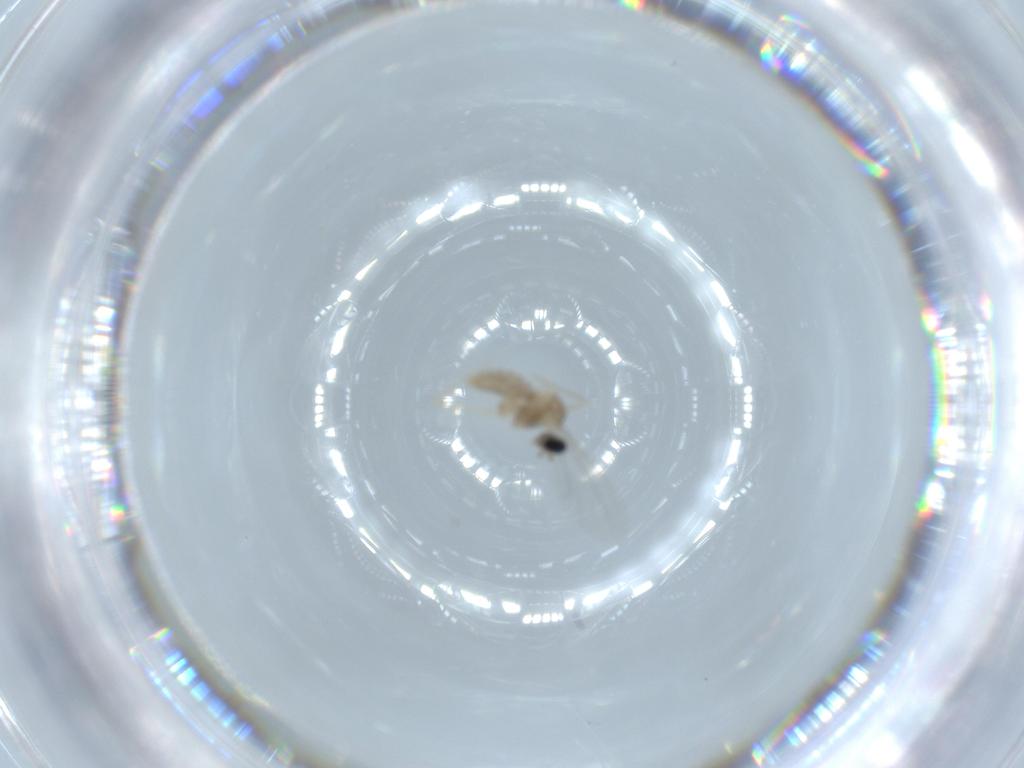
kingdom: Animalia
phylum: Arthropoda
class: Insecta
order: Diptera
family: Cecidomyiidae
